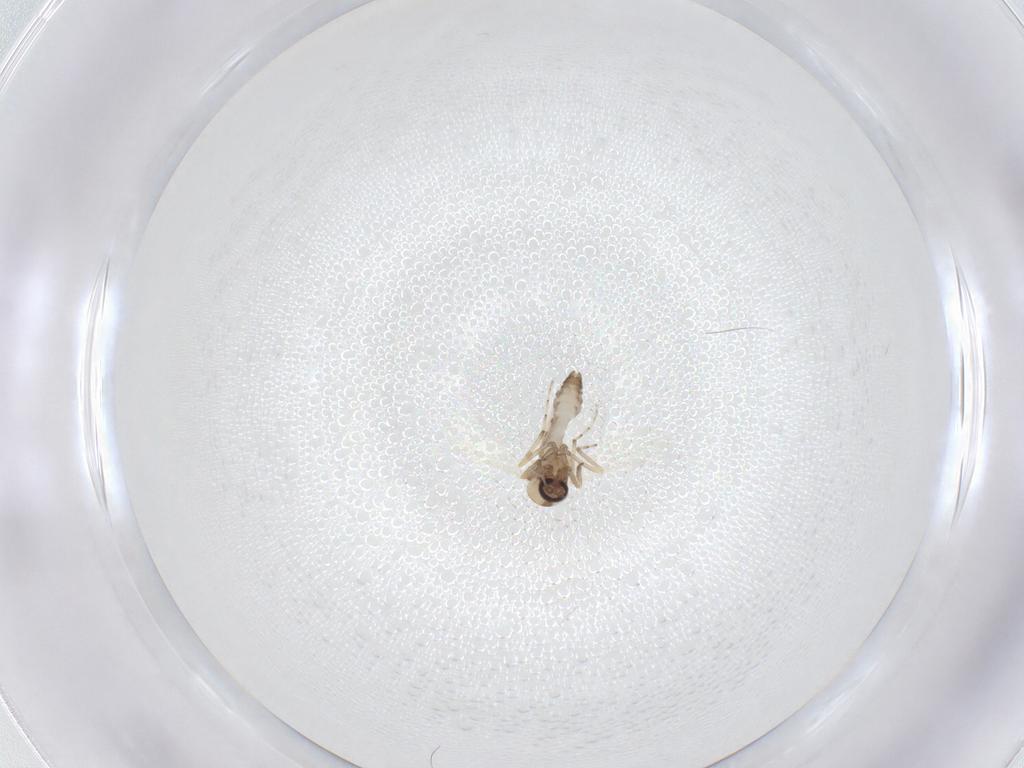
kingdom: Animalia
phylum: Arthropoda
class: Insecta
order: Diptera
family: Ceratopogonidae
